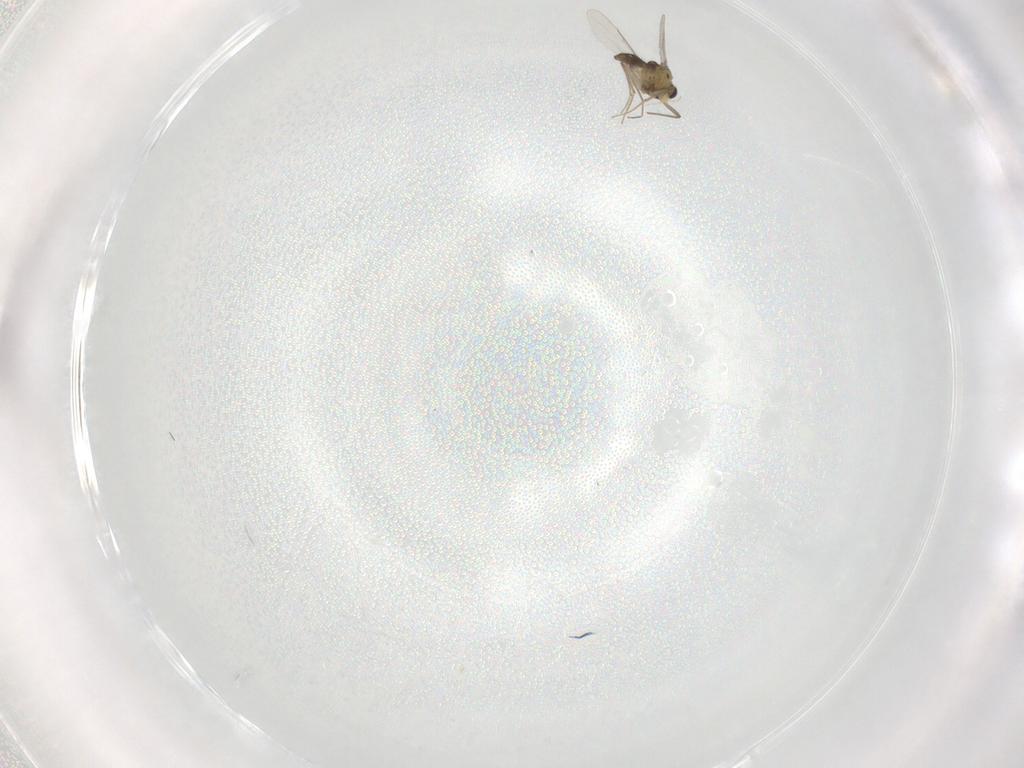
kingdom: Animalia
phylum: Arthropoda
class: Insecta
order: Diptera
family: Chironomidae
